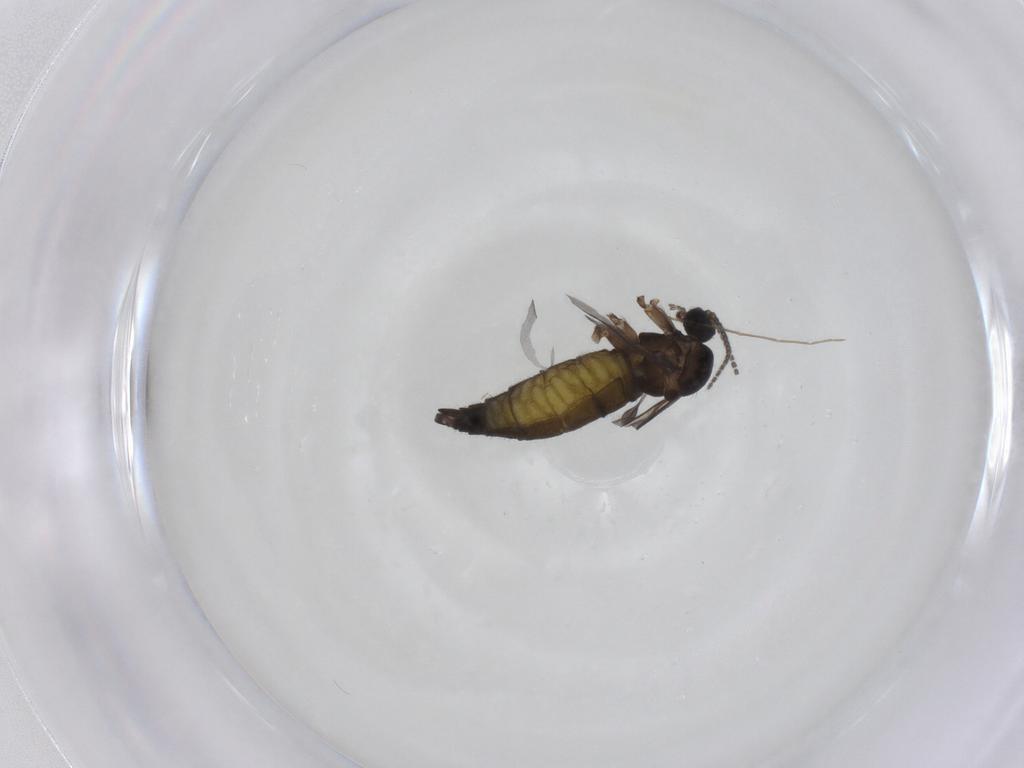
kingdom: Animalia
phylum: Arthropoda
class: Insecta
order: Diptera
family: Sciaridae
